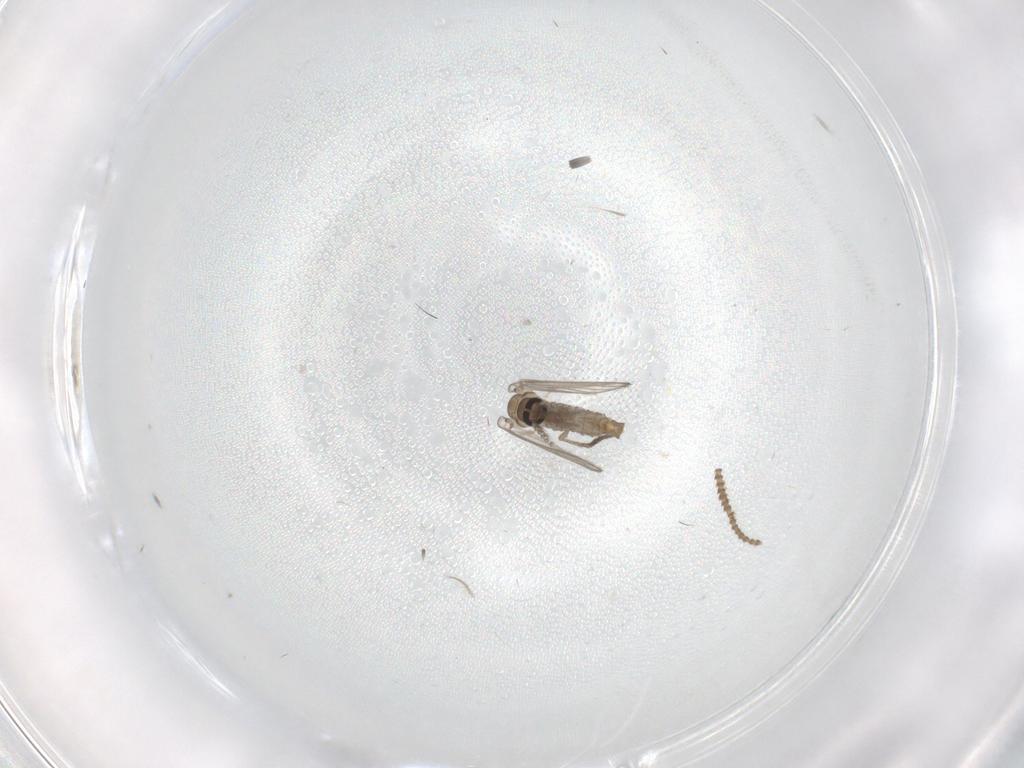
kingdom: Animalia
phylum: Arthropoda
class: Insecta
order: Diptera
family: Psychodidae
